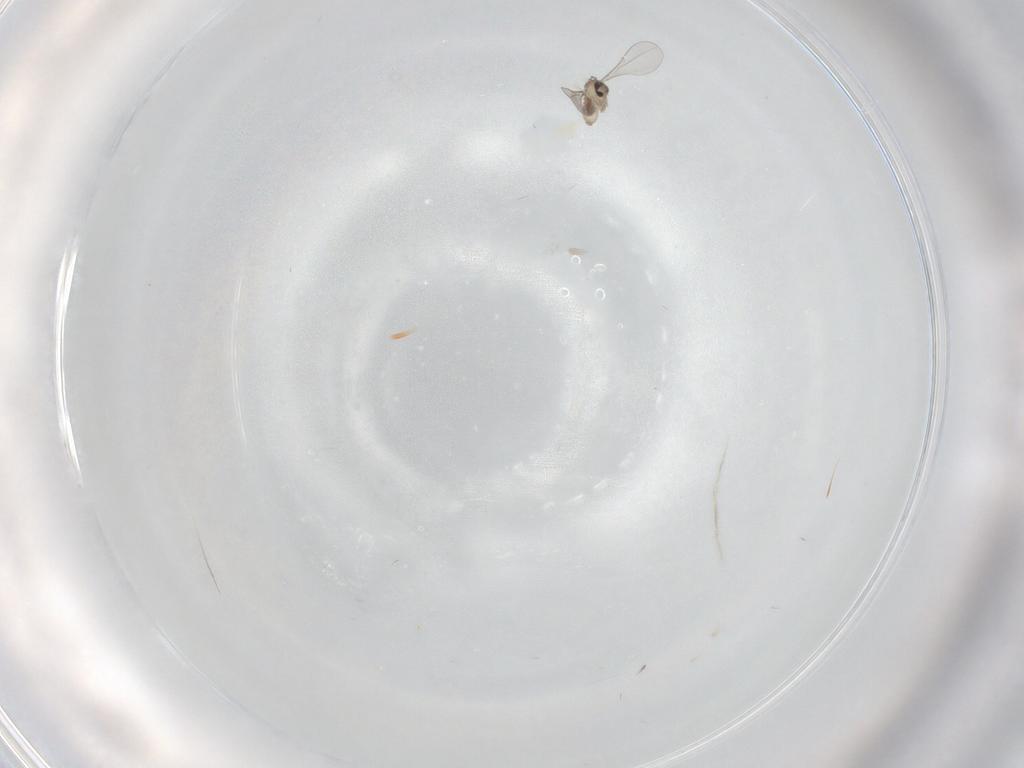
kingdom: Animalia
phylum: Arthropoda
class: Insecta
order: Diptera
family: Cecidomyiidae
